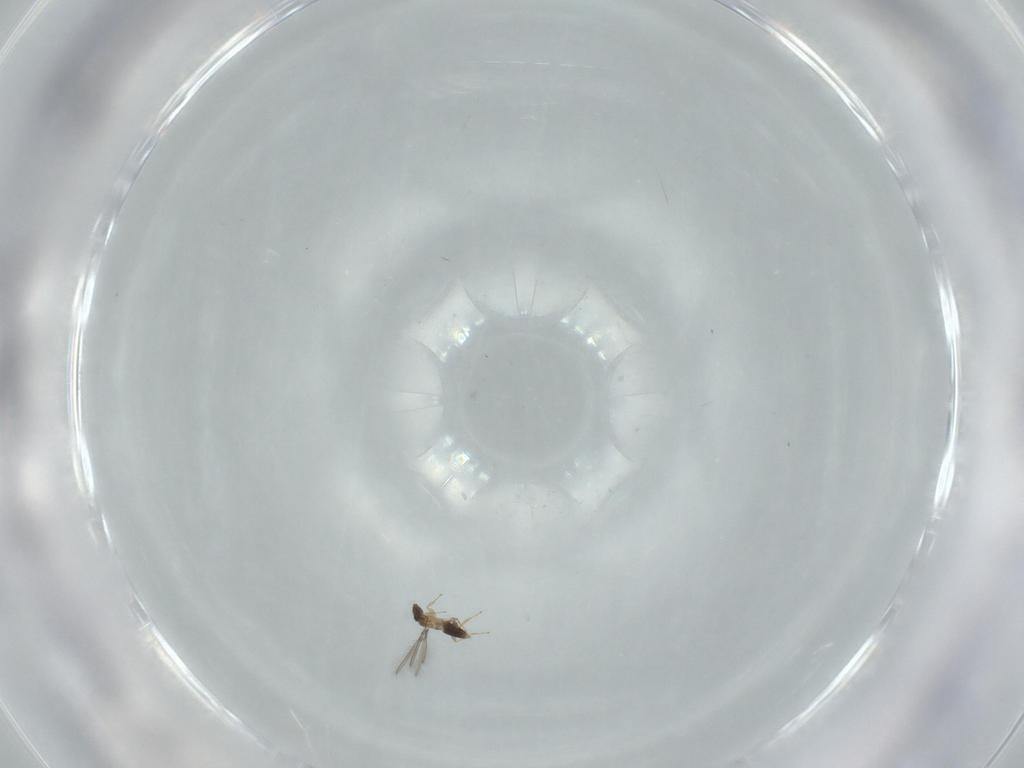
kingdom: Animalia
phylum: Arthropoda
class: Insecta
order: Hymenoptera
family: Mymaridae
